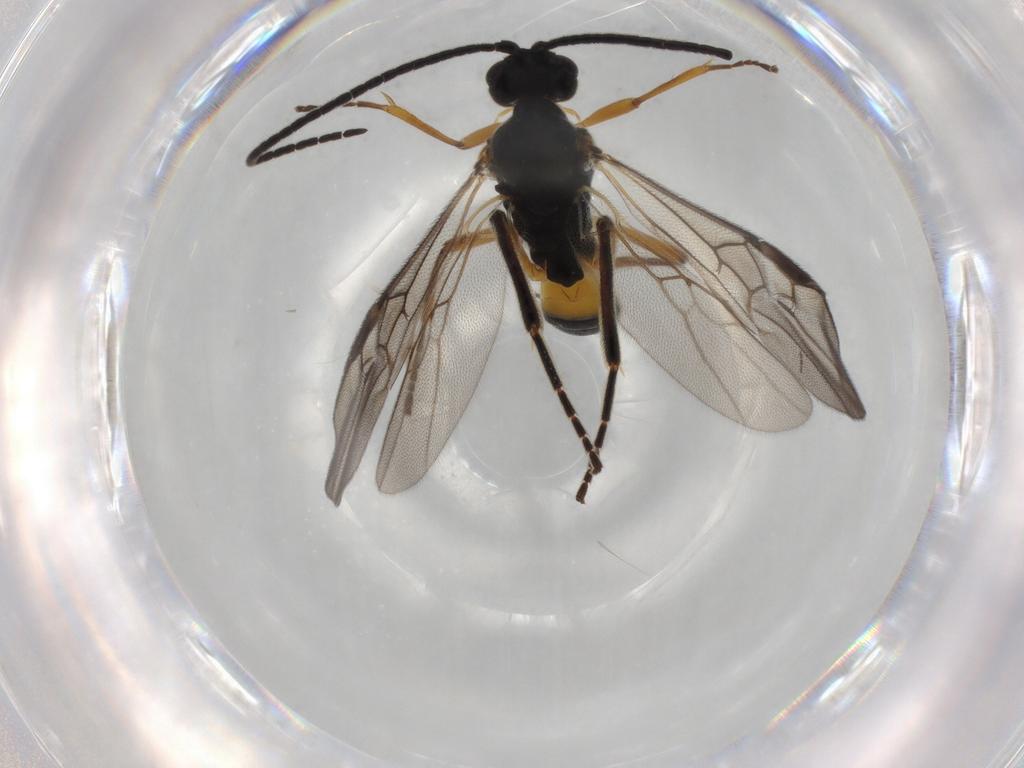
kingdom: Animalia
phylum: Arthropoda
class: Insecta
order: Hymenoptera
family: Braconidae
